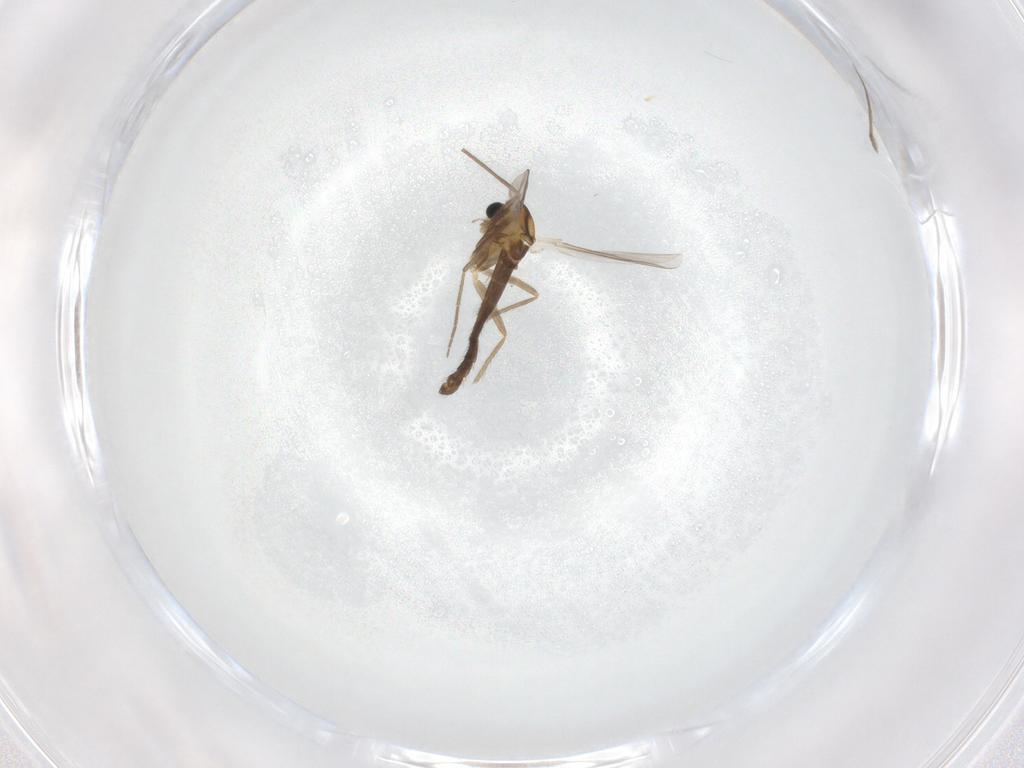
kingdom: Animalia
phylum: Arthropoda
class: Insecta
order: Diptera
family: Chironomidae
